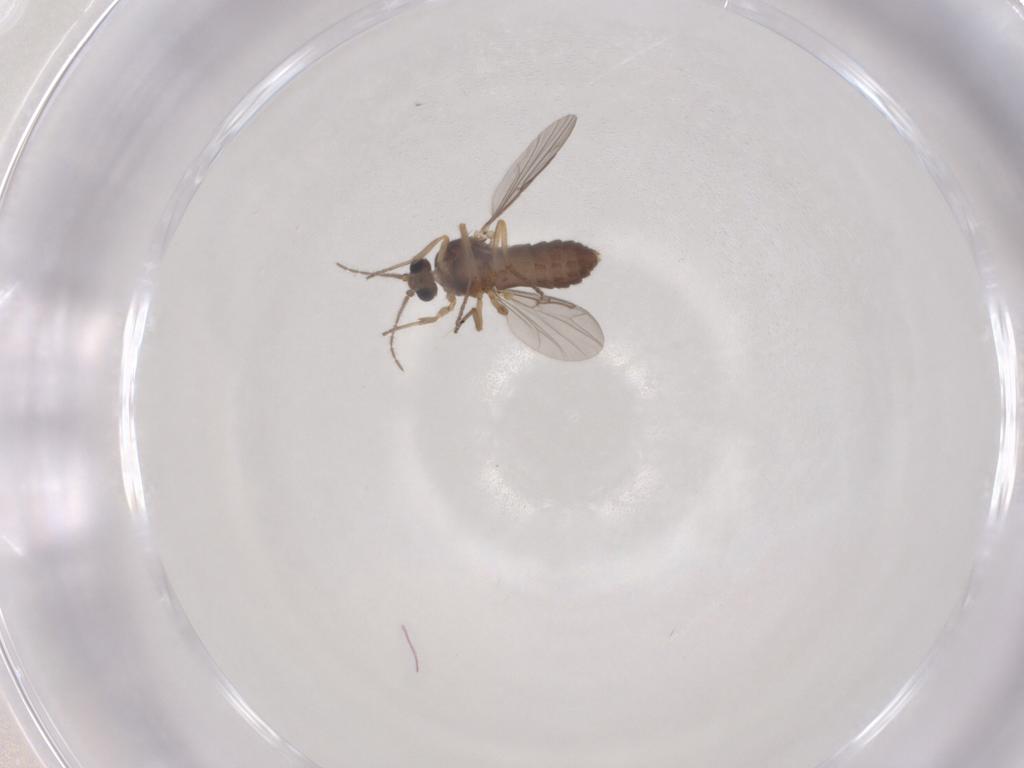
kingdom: Animalia
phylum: Arthropoda
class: Insecta
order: Diptera
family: Ceratopogonidae
